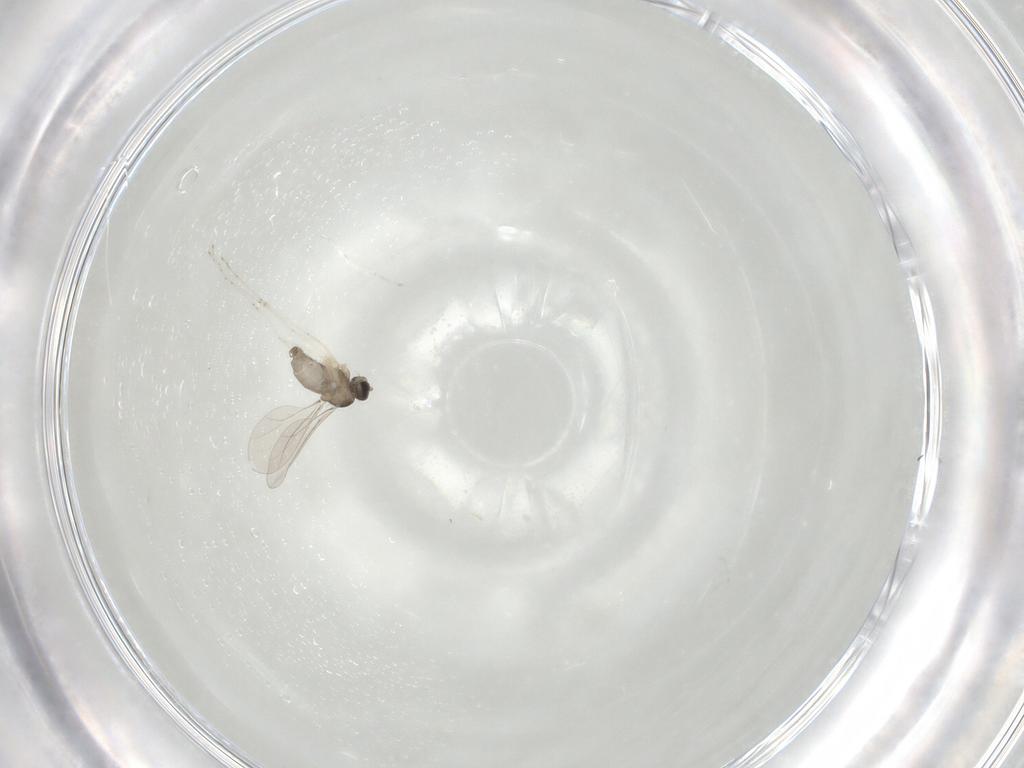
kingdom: Animalia
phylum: Arthropoda
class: Insecta
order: Diptera
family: Cecidomyiidae
